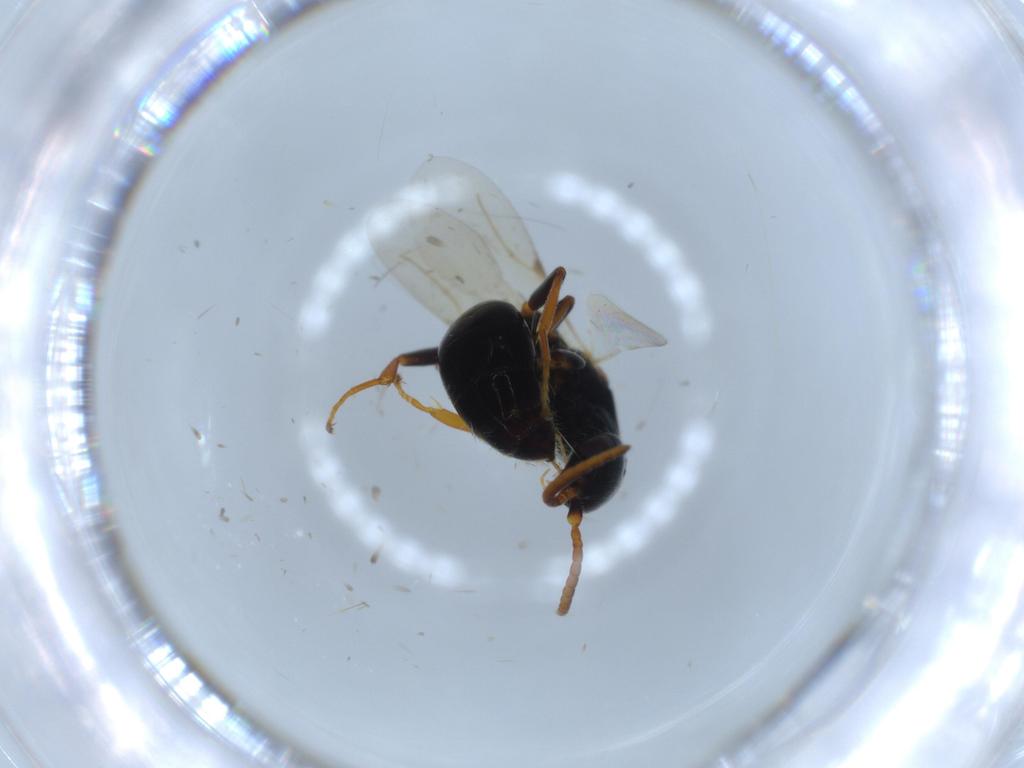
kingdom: Animalia
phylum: Arthropoda
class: Insecta
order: Hymenoptera
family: Bethylidae
